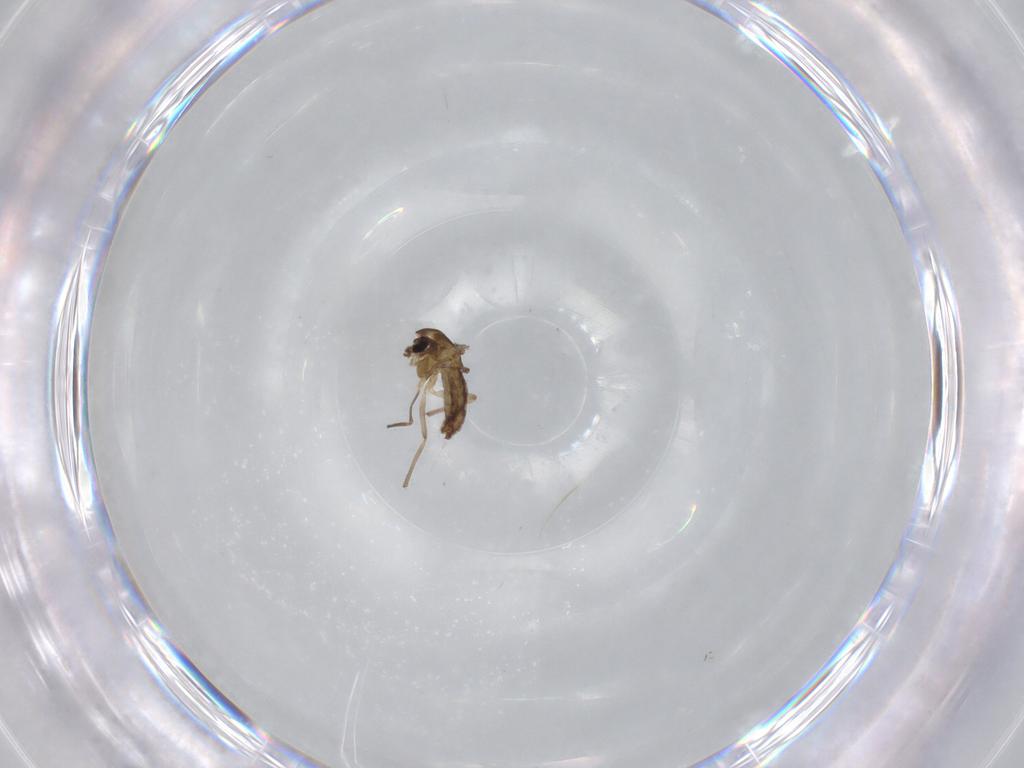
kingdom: Animalia
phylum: Arthropoda
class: Insecta
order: Diptera
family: Chironomidae
